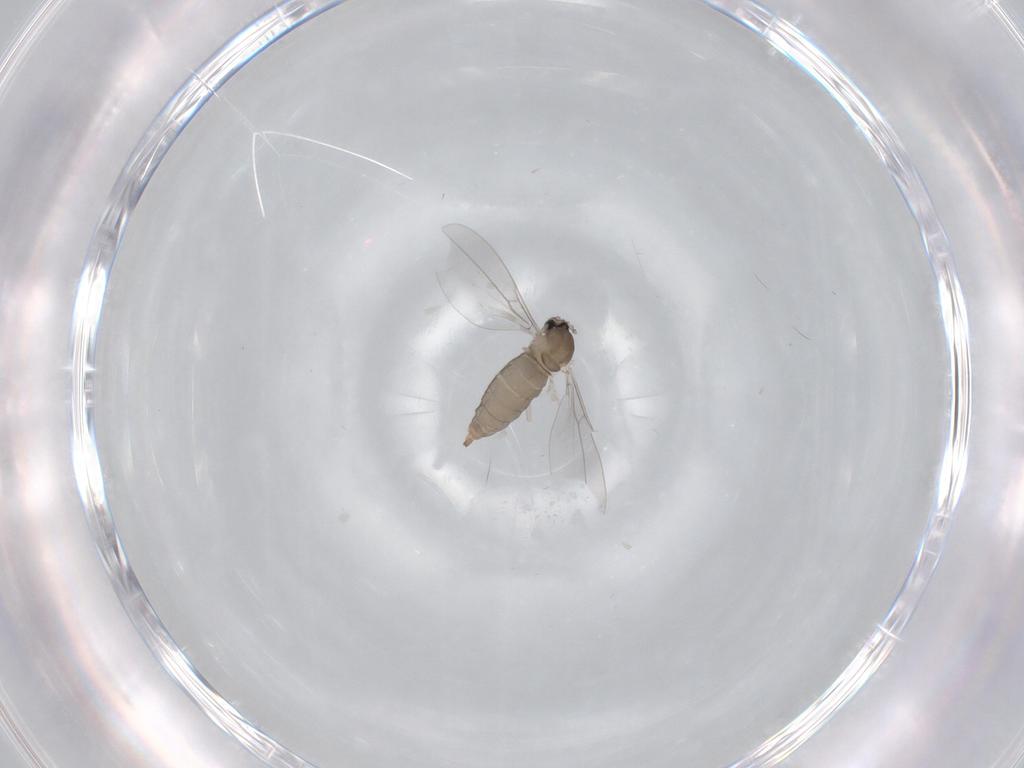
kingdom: Animalia
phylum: Arthropoda
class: Insecta
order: Diptera
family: Cecidomyiidae
